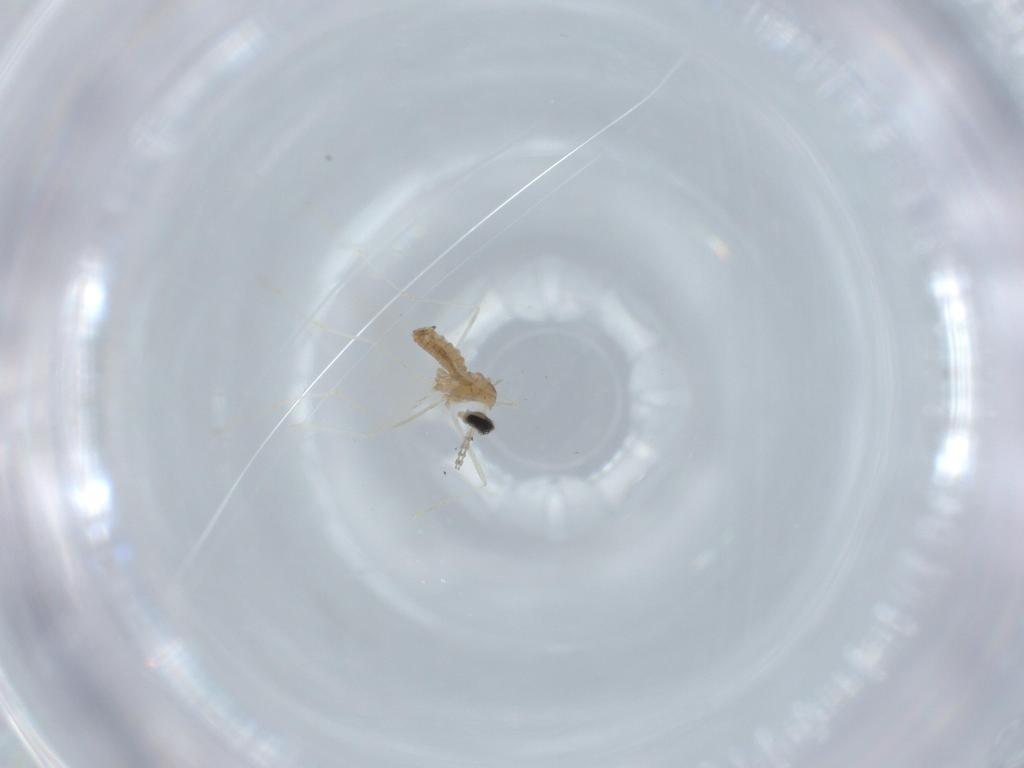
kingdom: Animalia
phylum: Arthropoda
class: Insecta
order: Diptera
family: Cecidomyiidae
